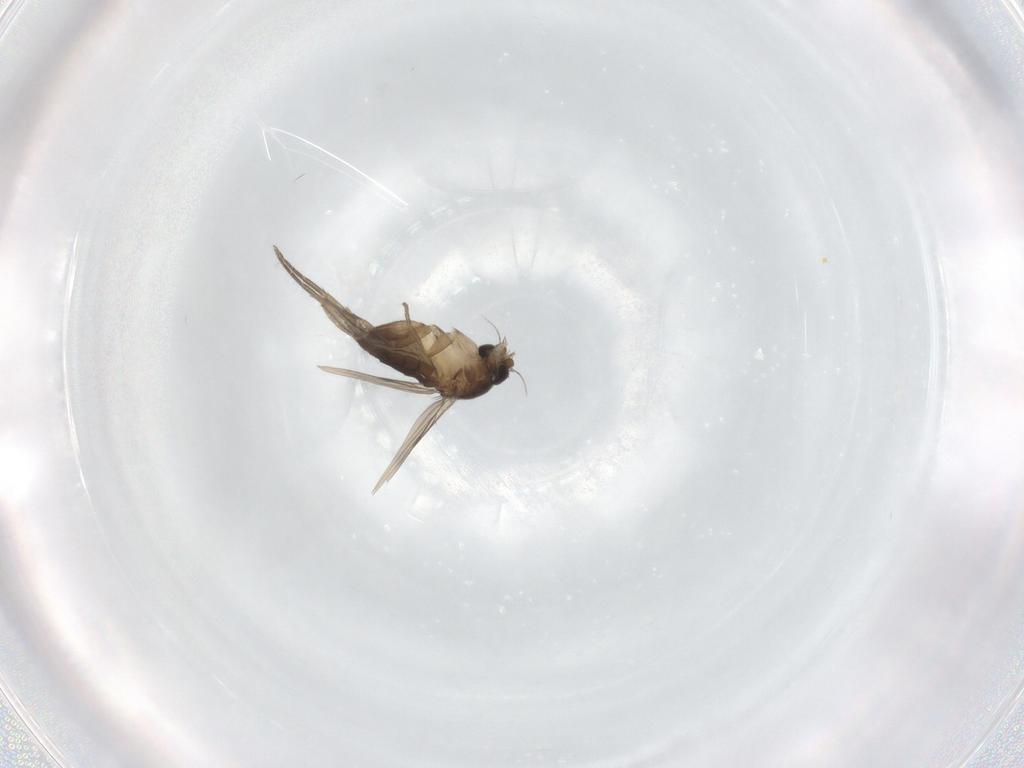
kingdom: Animalia
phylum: Arthropoda
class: Insecta
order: Diptera
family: Phoridae
